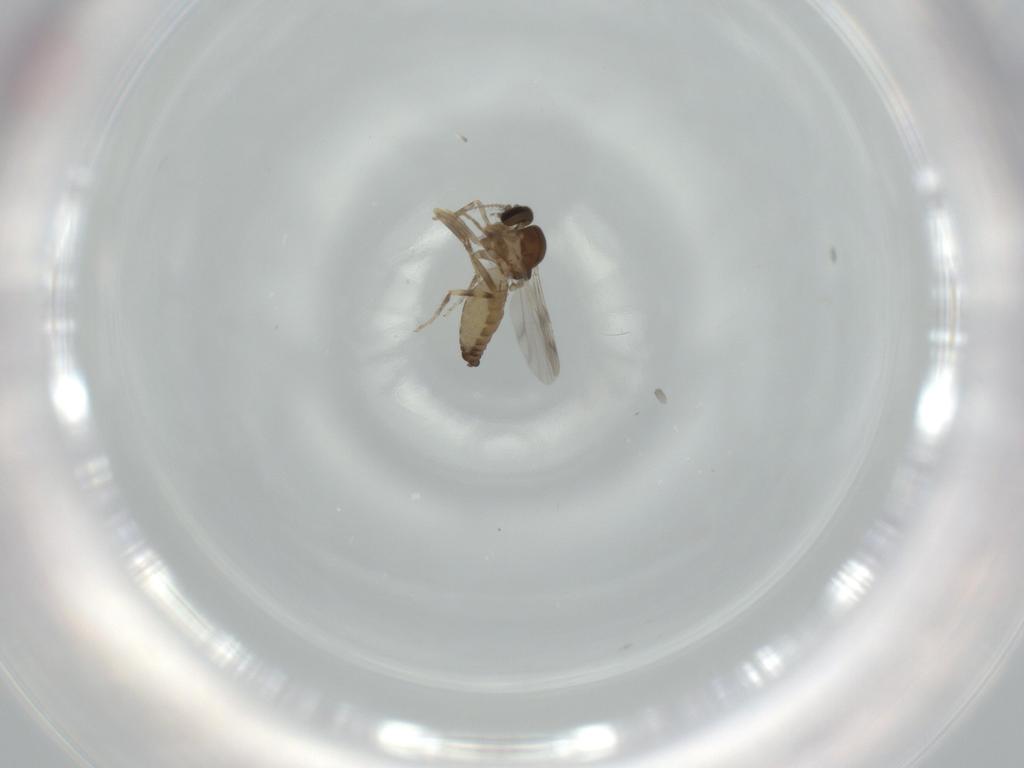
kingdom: Animalia
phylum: Arthropoda
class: Insecta
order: Diptera
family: Ceratopogonidae
